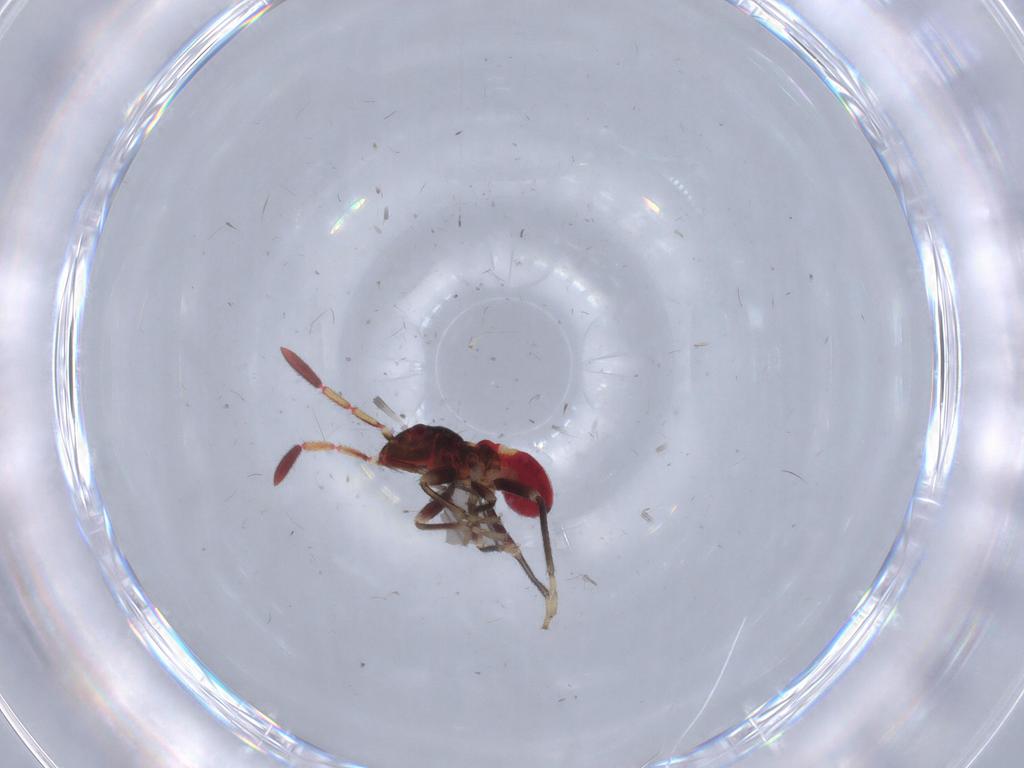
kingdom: Animalia
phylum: Arthropoda
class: Insecta
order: Hemiptera
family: Rhyparochromidae
